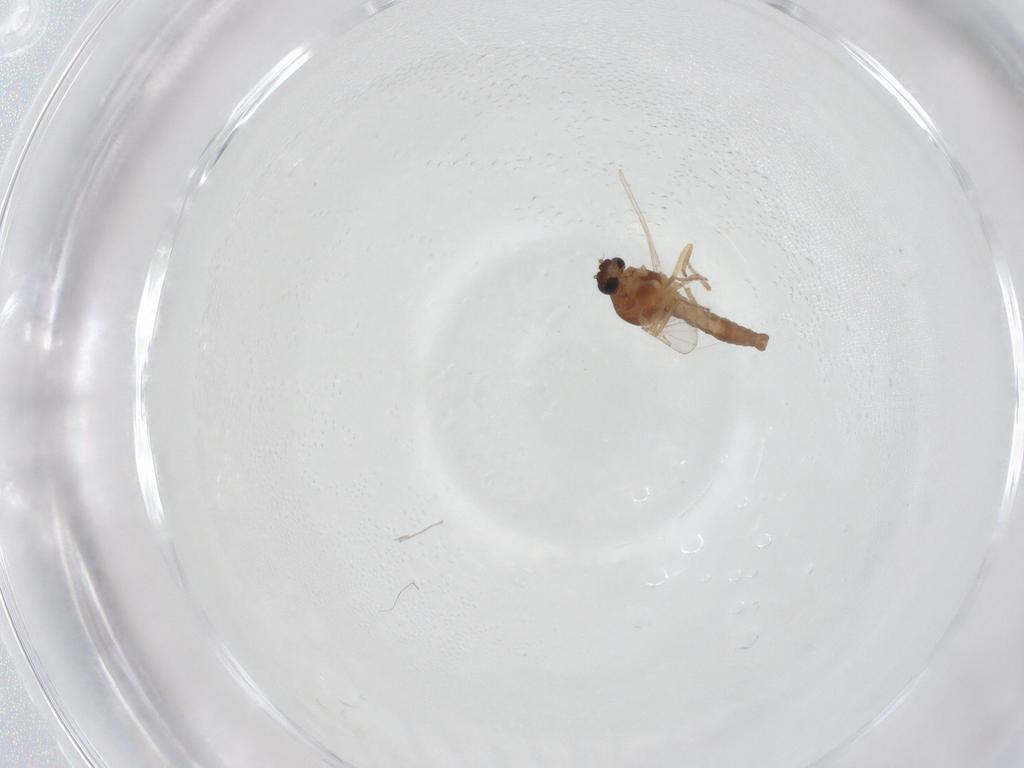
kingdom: Animalia
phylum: Arthropoda
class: Insecta
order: Diptera
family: Ceratopogonidae
